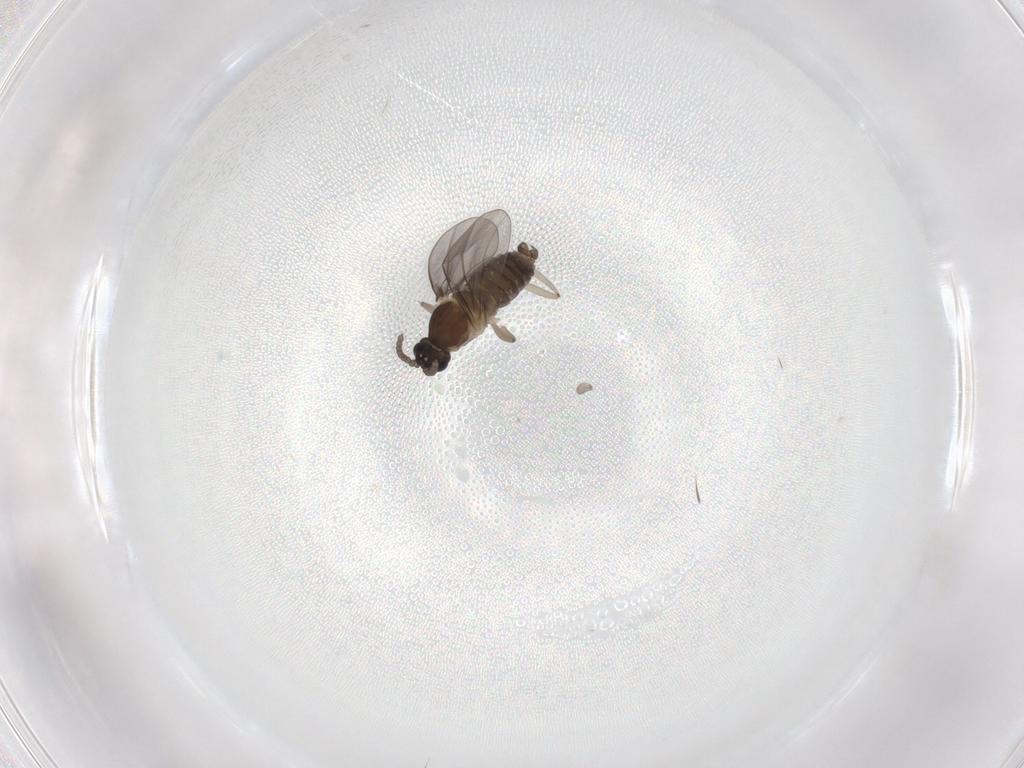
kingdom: Animalia
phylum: Arthropoda
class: Insecta
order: Diptera
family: Cecidomyiidae
